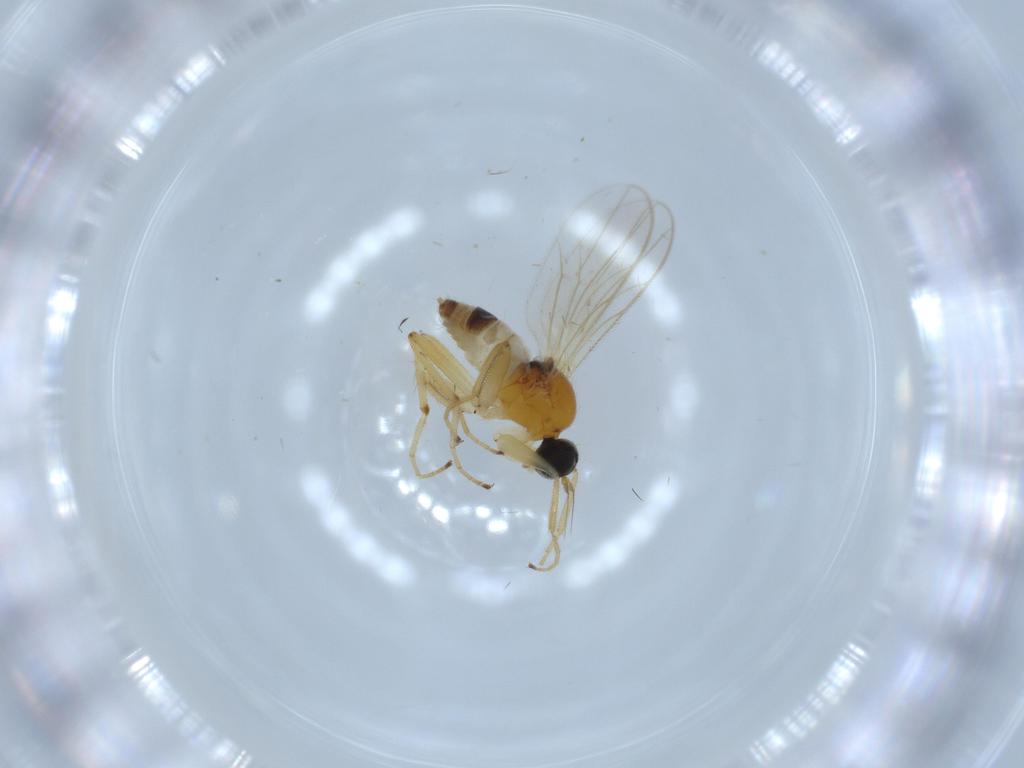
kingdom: Animalia
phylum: Arthropoda
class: Insecta
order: Diptera
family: Hybotidae
